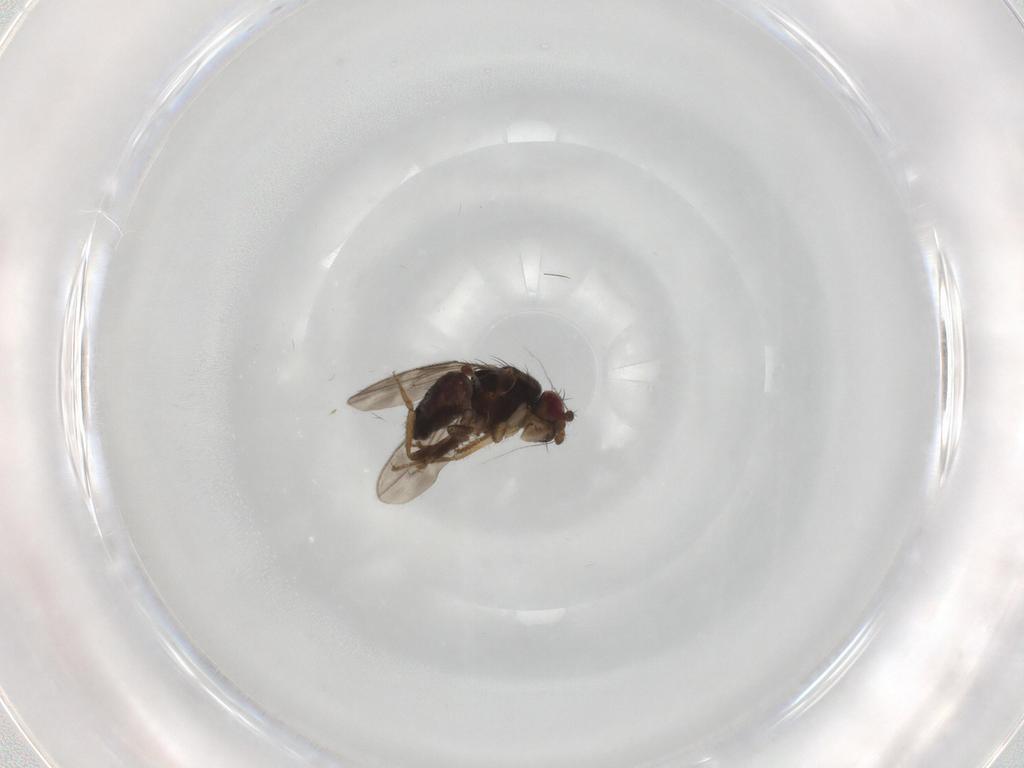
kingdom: Animalia
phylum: Arthropoda
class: Insecta
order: Diptera
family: Sphaeroceridae
